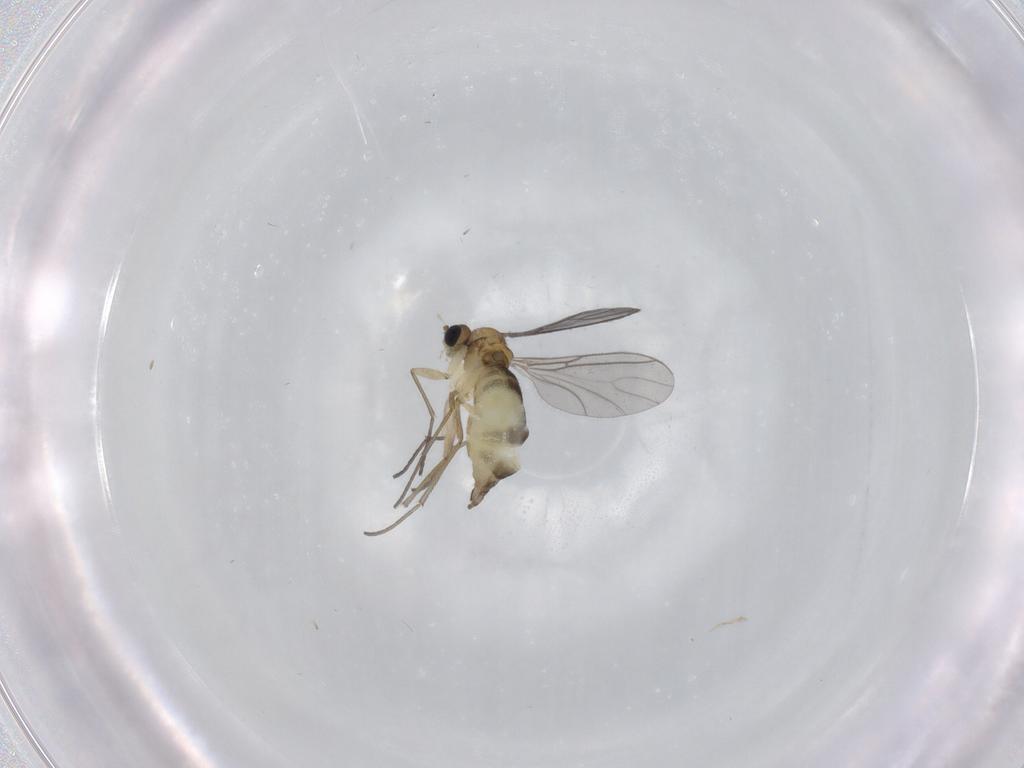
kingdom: Animalia
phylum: Arthropoda
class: Insecta
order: Diptera
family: Sciaridae
